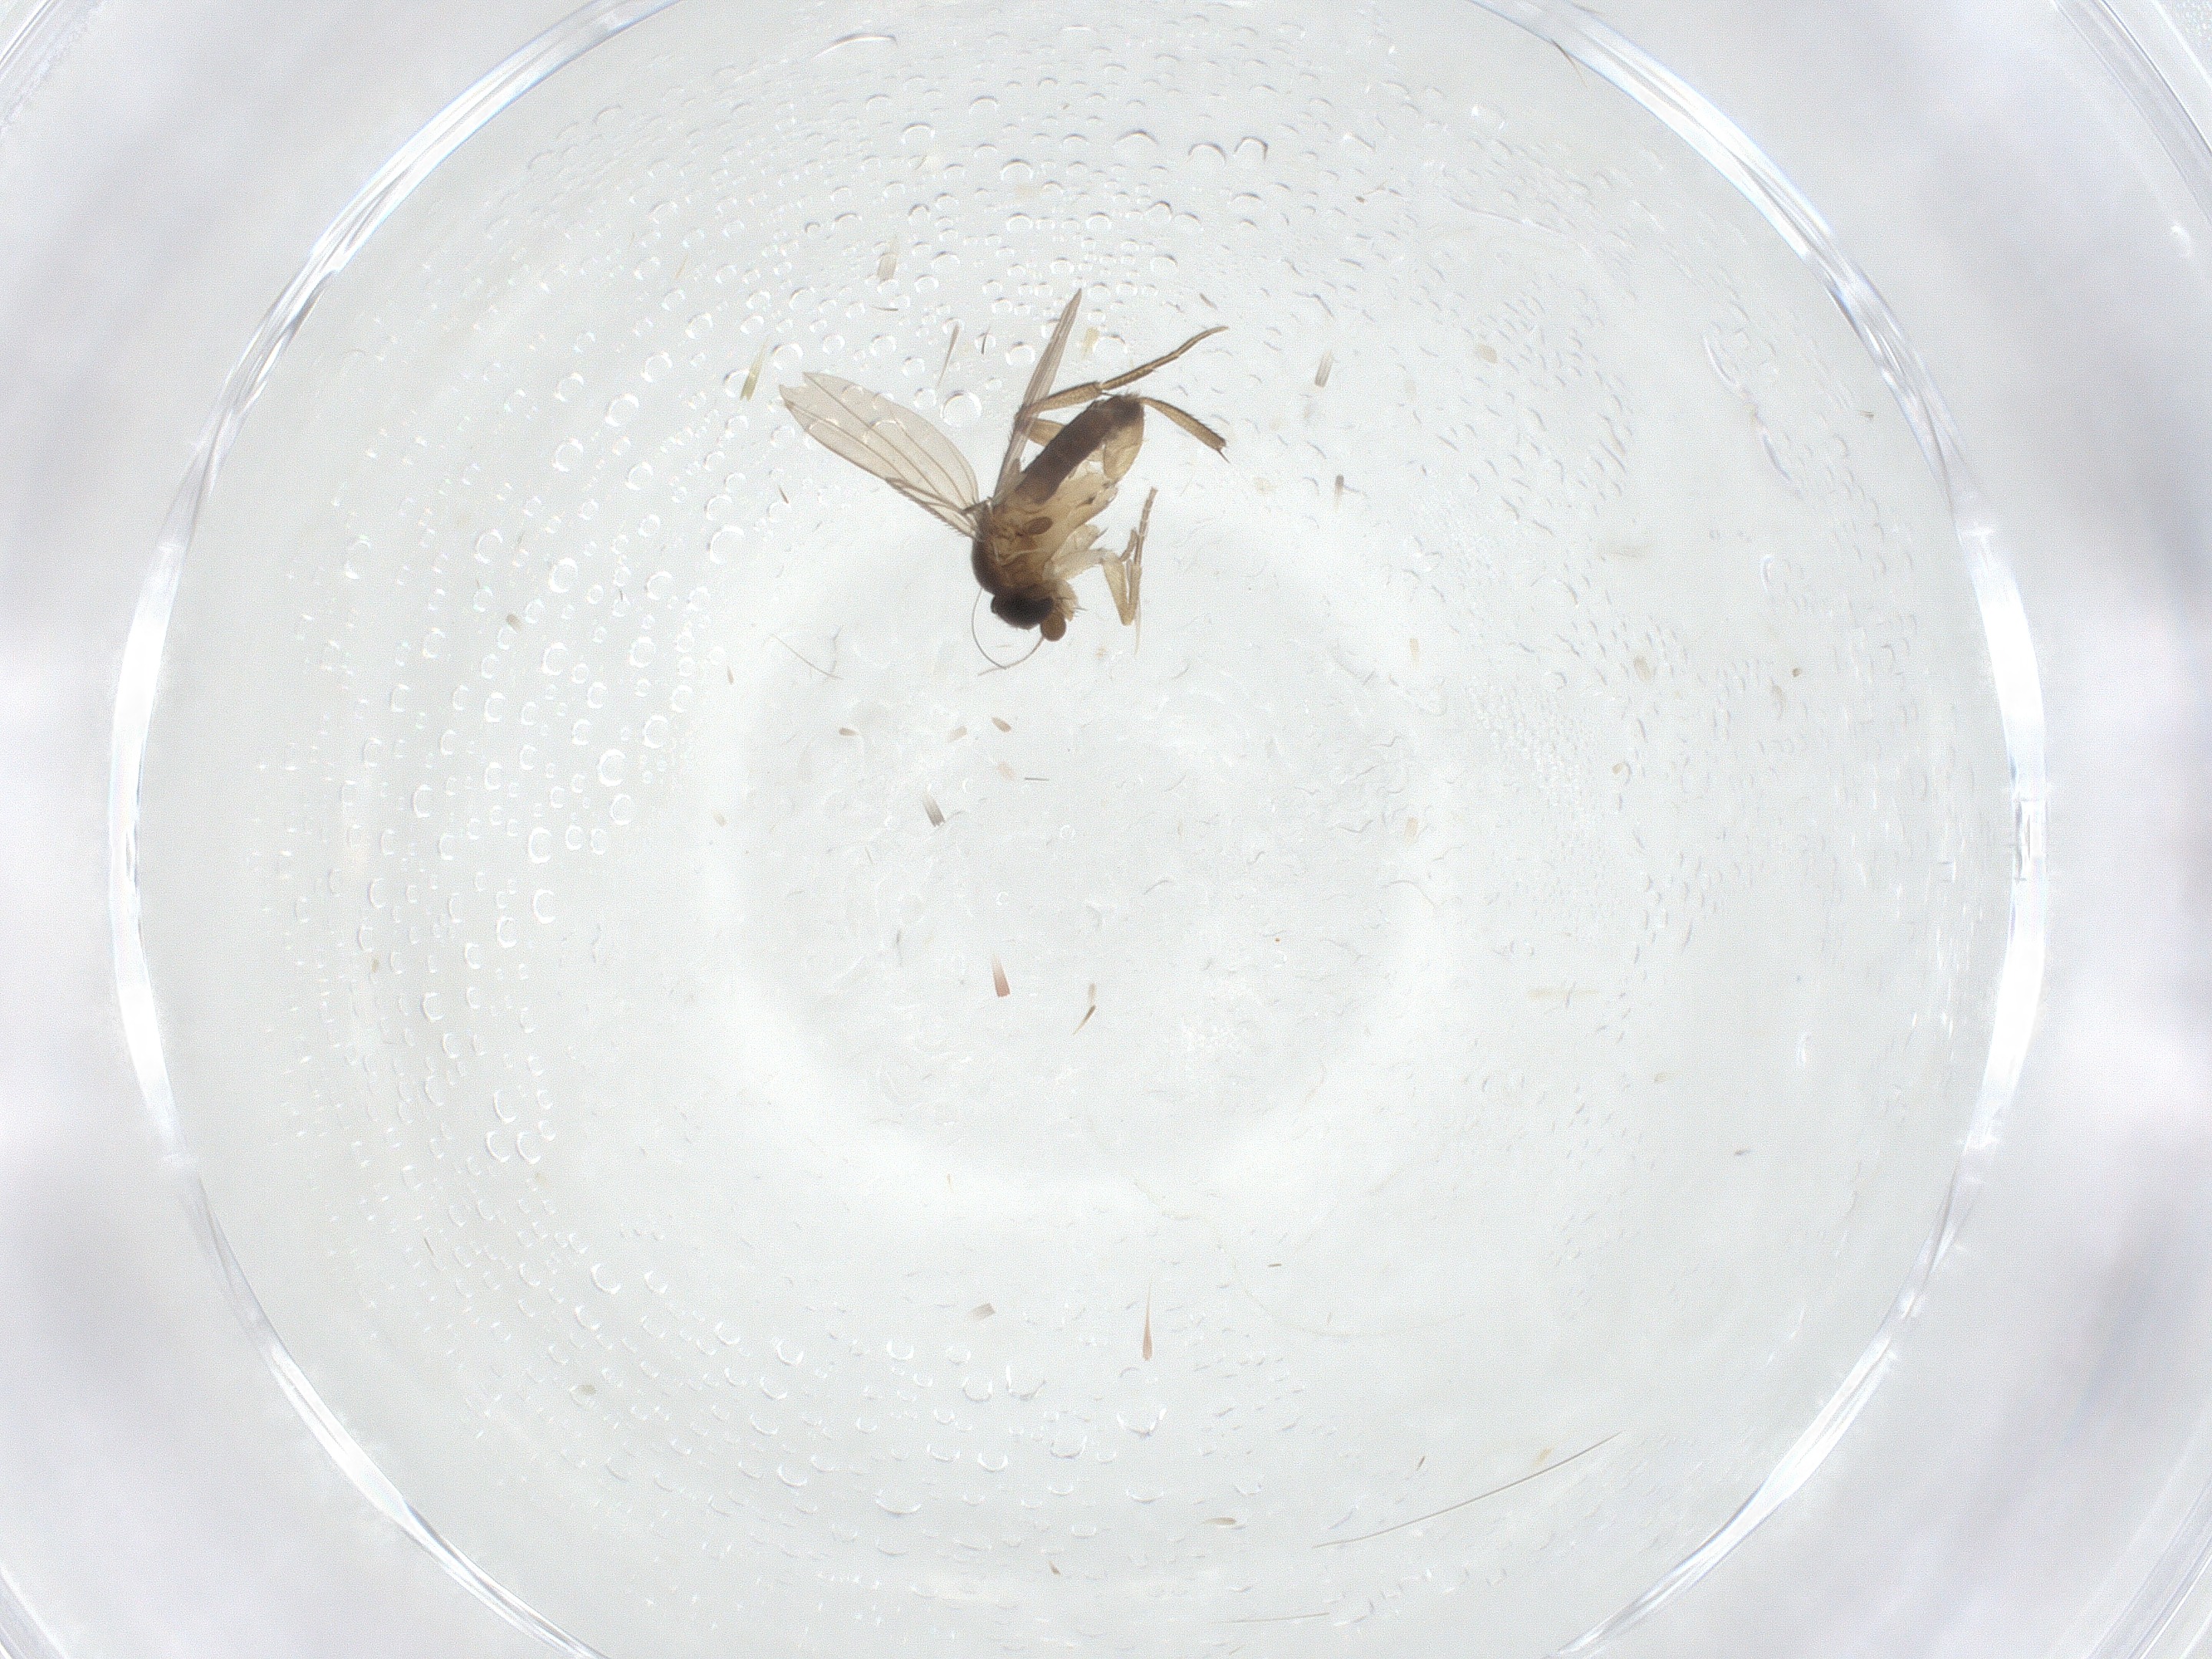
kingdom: Animalia
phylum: Arthropoda
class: Insecta
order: Diptera
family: Phoridae
